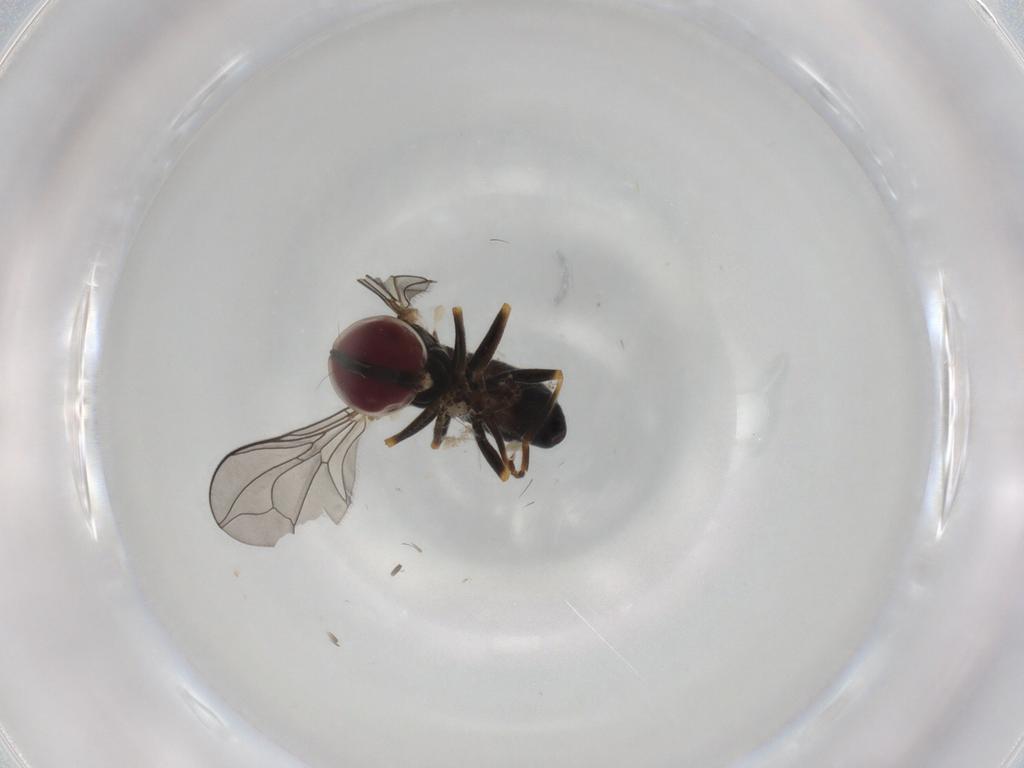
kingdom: Animalia
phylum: Arthropoda
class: Insecta
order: Diptera
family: Pipunculidae
